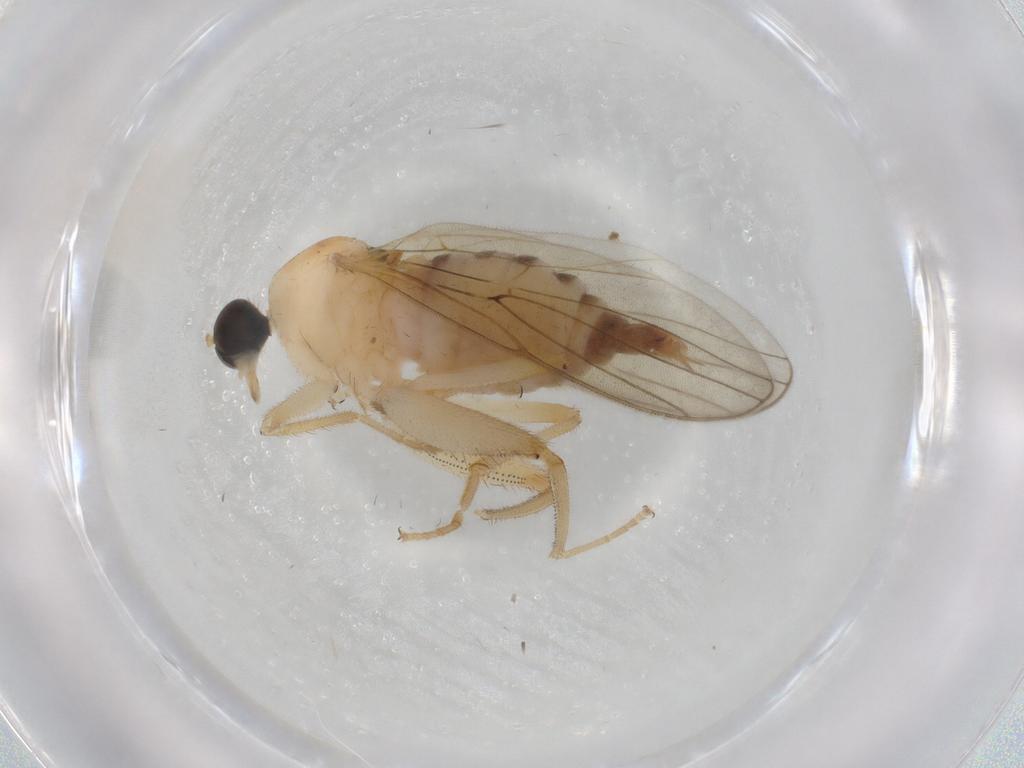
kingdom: Animalia
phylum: Arthropoda
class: Insecta
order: Diptera
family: Hybotidae
